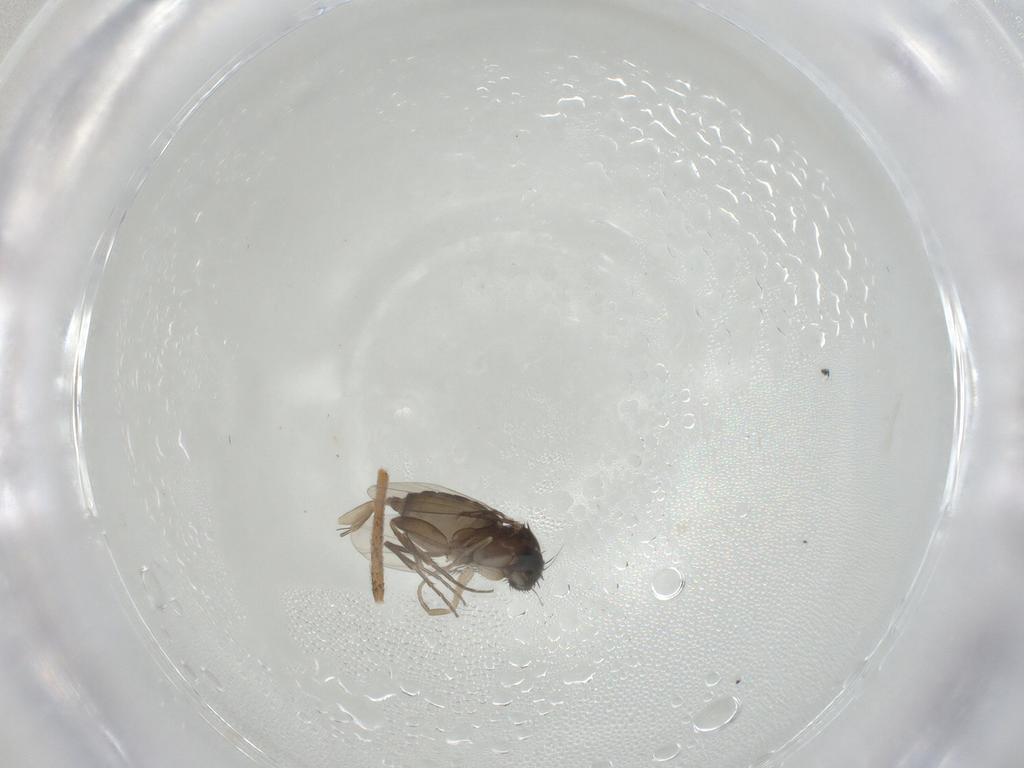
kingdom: Animalia
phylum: Arthropoda
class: Insecta
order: Diptera
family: Phoridae
